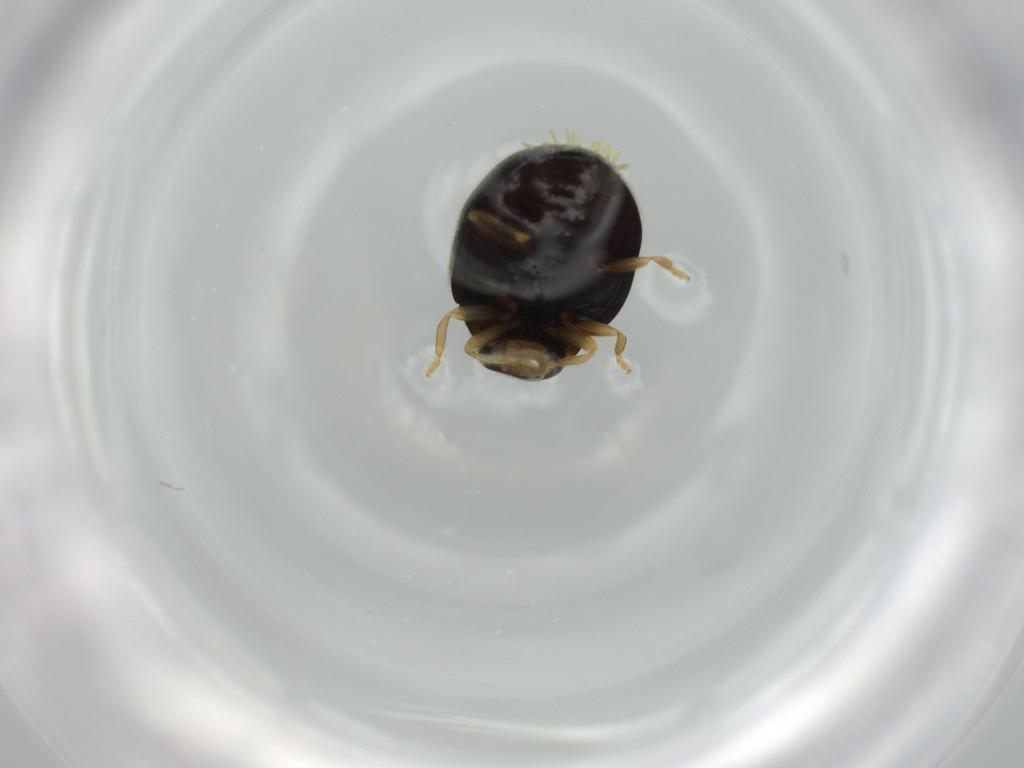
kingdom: Animalia
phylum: Arthropoda
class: Insecta
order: Coleoptera
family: Coccinellidae
